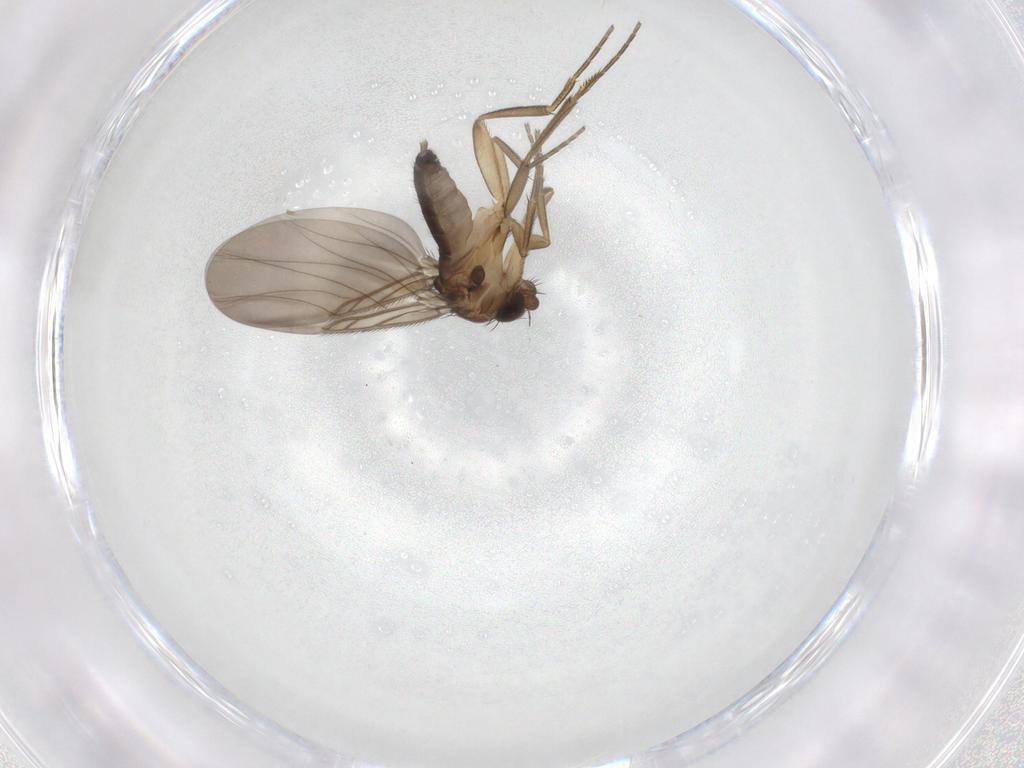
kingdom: Animalia
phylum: Arthropoda
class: Insecta
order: Diptera
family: Phoridae
